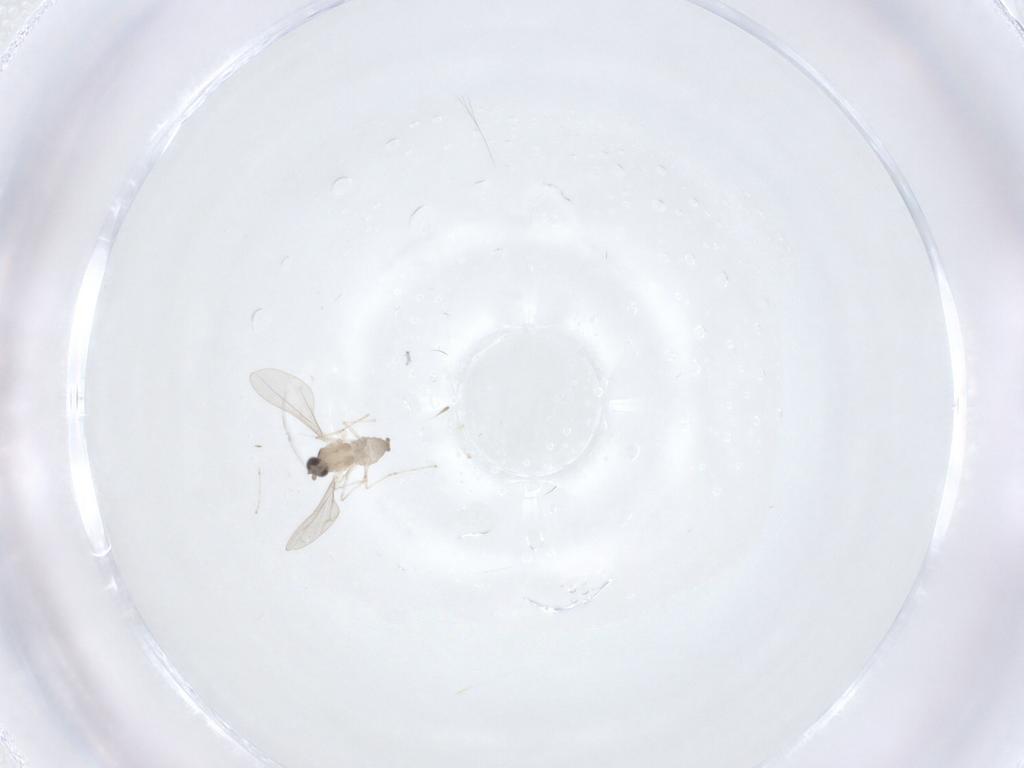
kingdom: Animalia
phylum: Arthropoda
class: Insecta
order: Diptera
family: Cecidomyiidae
